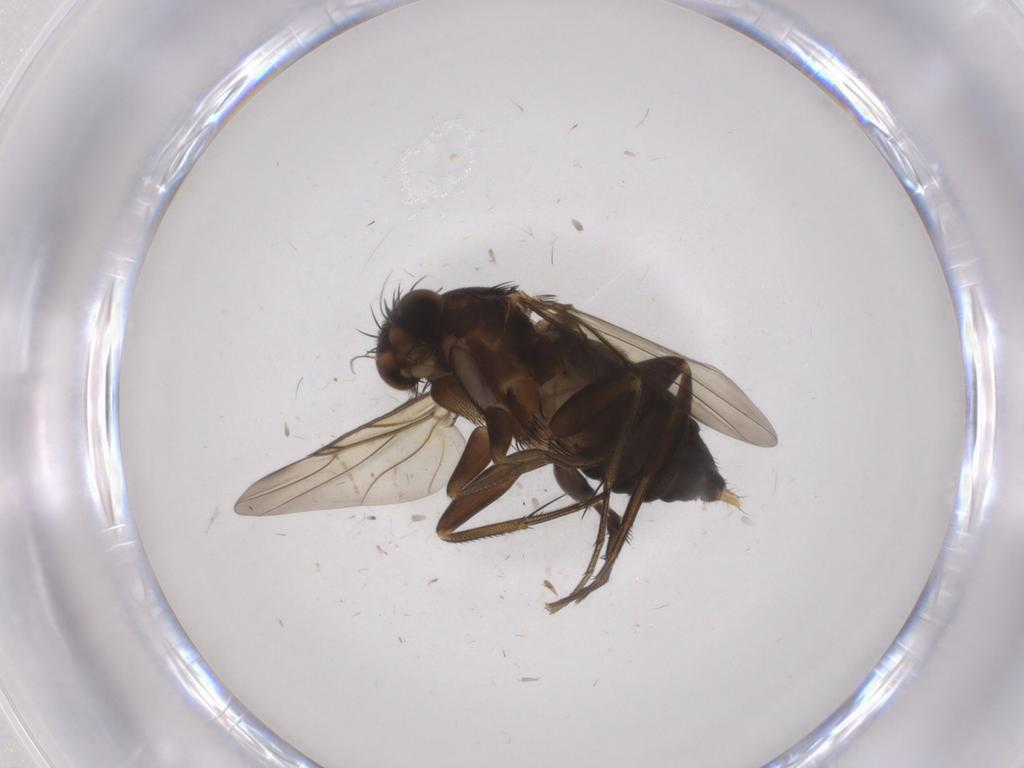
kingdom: Animalia
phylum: Arthropoda
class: Insecta
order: Diptera
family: Phoridae
